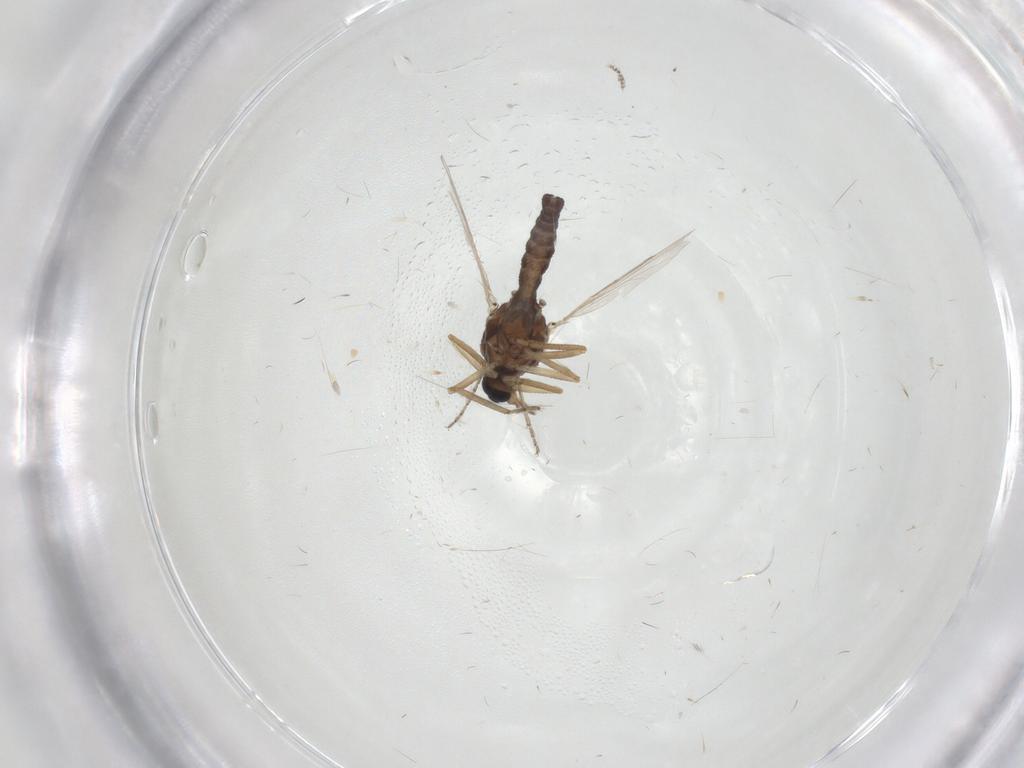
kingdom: Animalia
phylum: Arthropoda
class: Insecta
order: Diptera
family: Ceratopogonidae
